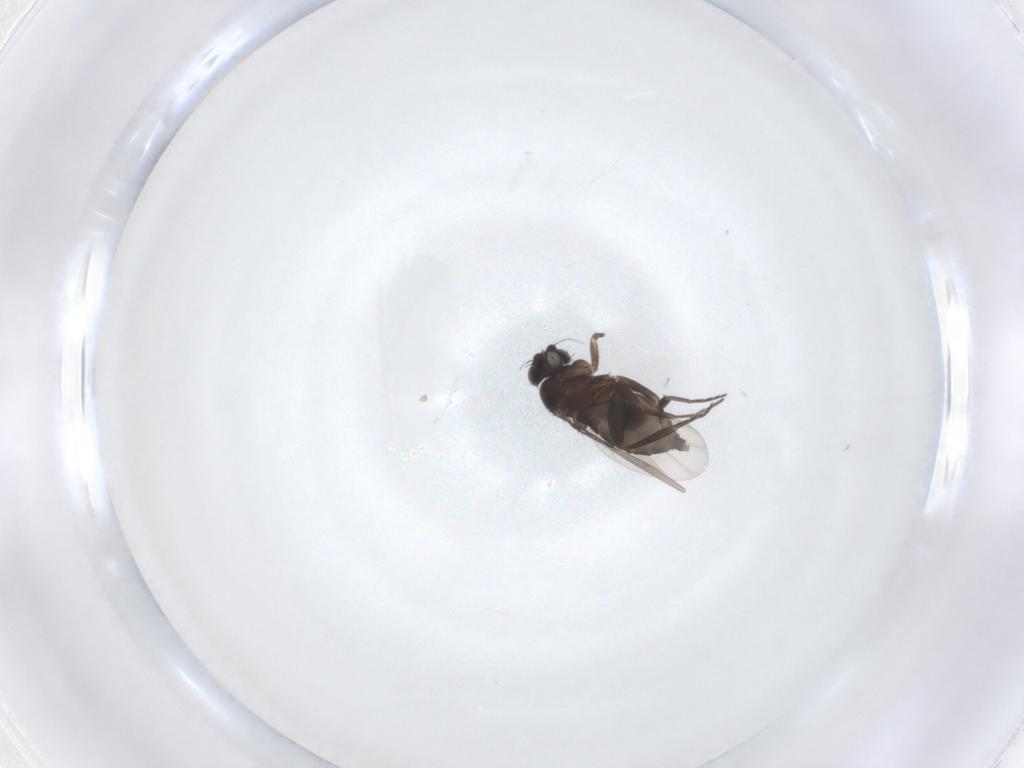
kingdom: Animalia
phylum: Arthropoda
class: Insecta
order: Diptera
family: Phoridae
